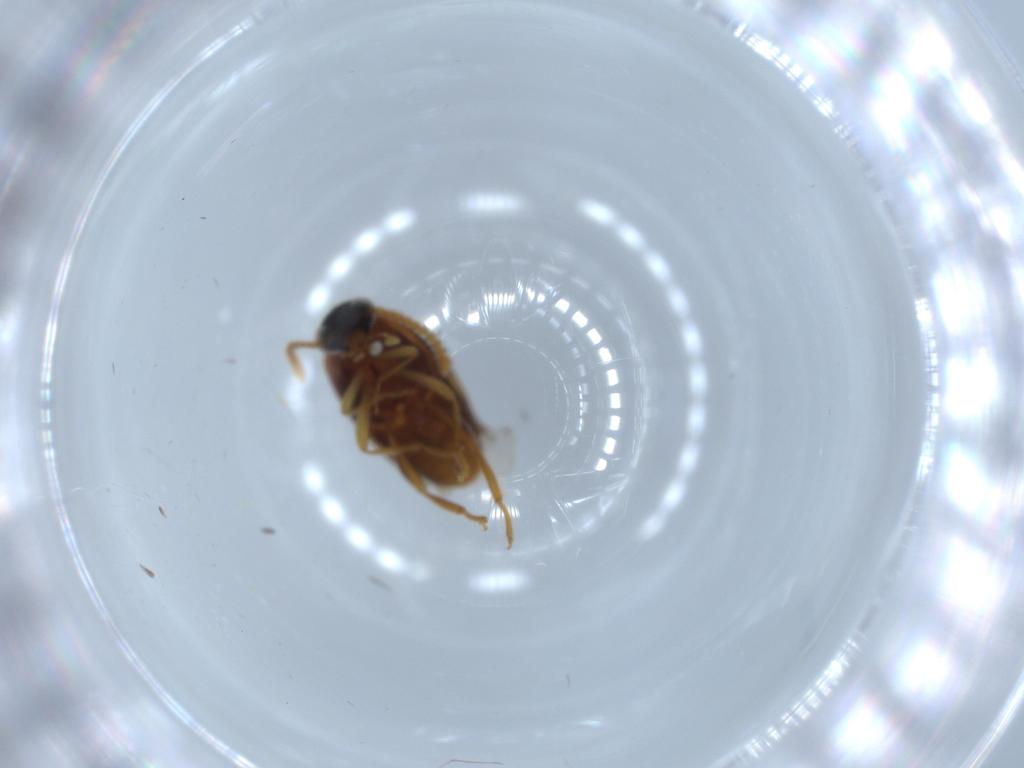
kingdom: Animalia
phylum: Arthropoda
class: Insecta
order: Coleoptera
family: Aderidae
